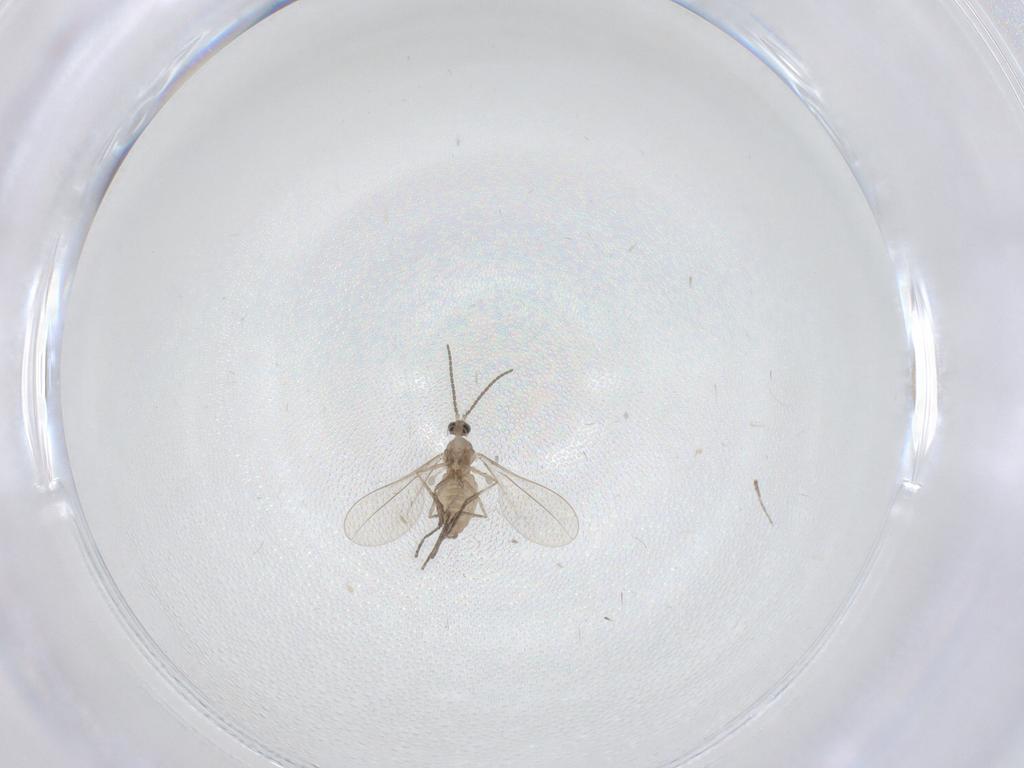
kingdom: Animalia
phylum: Arthropoda
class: Insecta
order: Diptera
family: Cecidomyiidae
